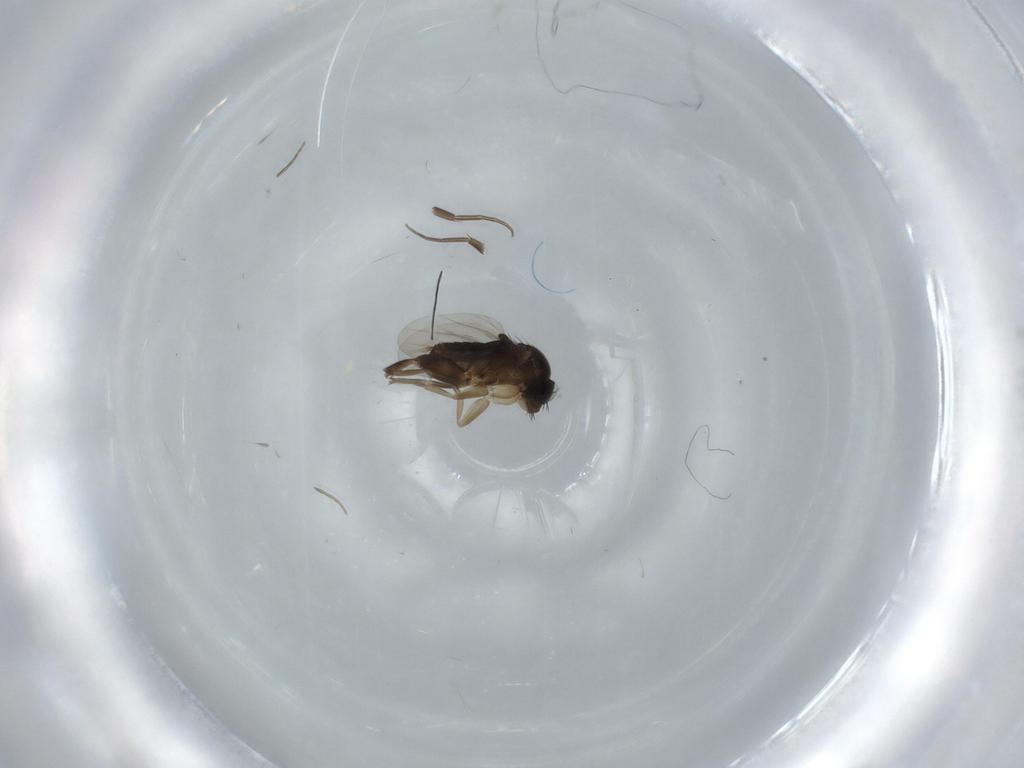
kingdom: Animalia
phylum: Arthropoda
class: Insecta
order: Diptera
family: Phoridae
